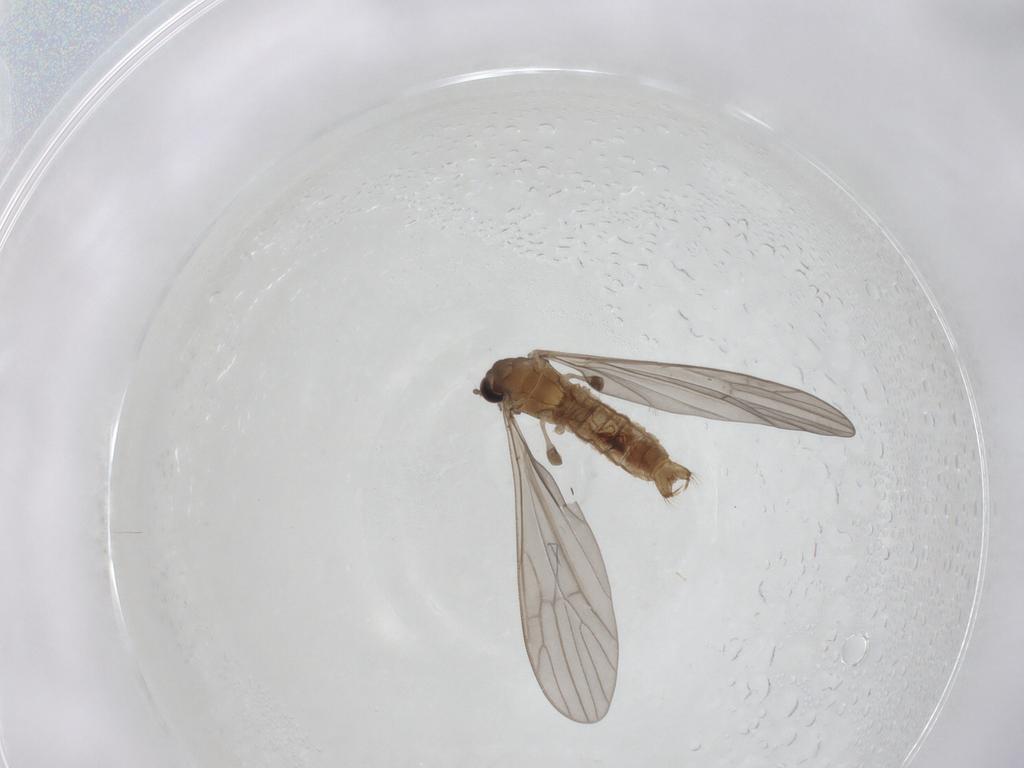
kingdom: Animalia
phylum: Arthropoda
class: Insecta
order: Diptera
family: Limoniidae
